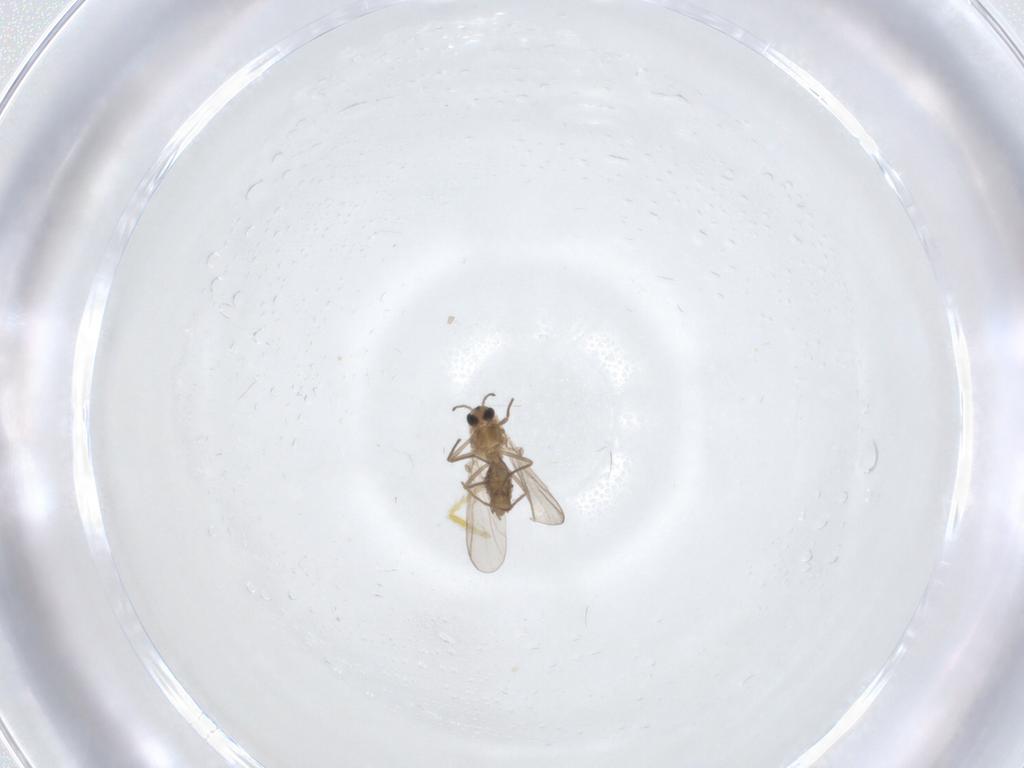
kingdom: Animalia
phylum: Arthropoda
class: Insecta
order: Diptera
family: Chironomidae
